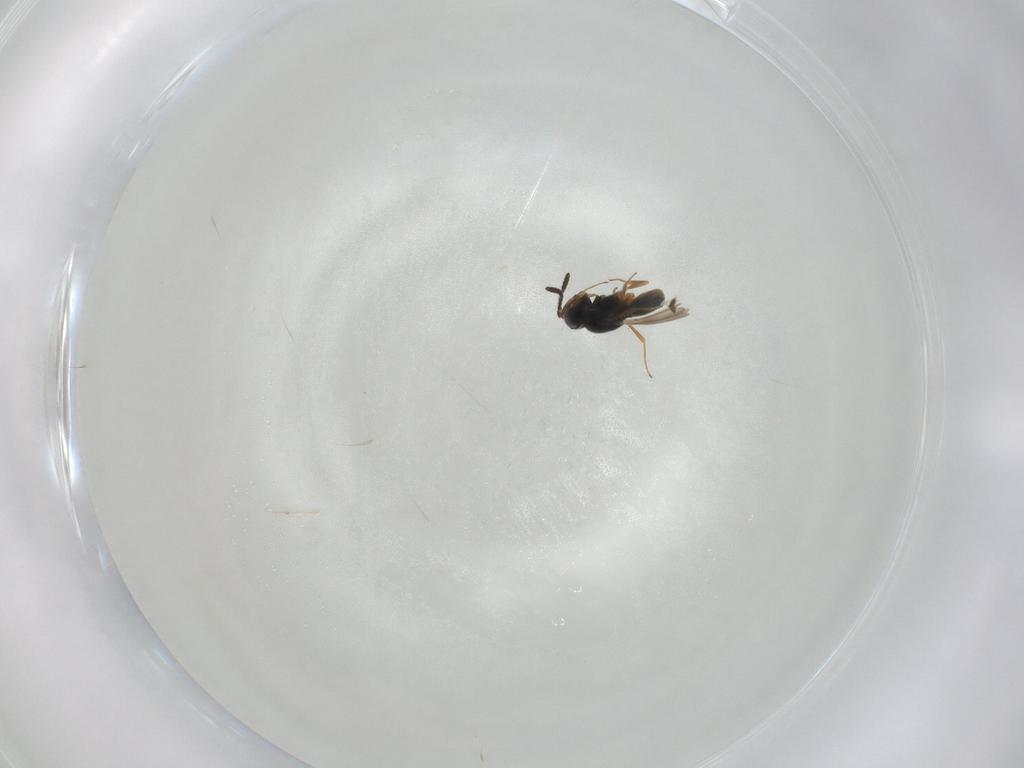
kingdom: Animalia
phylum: Arthropoda
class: Insecta
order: Hymenoptera
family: Scelionidae
